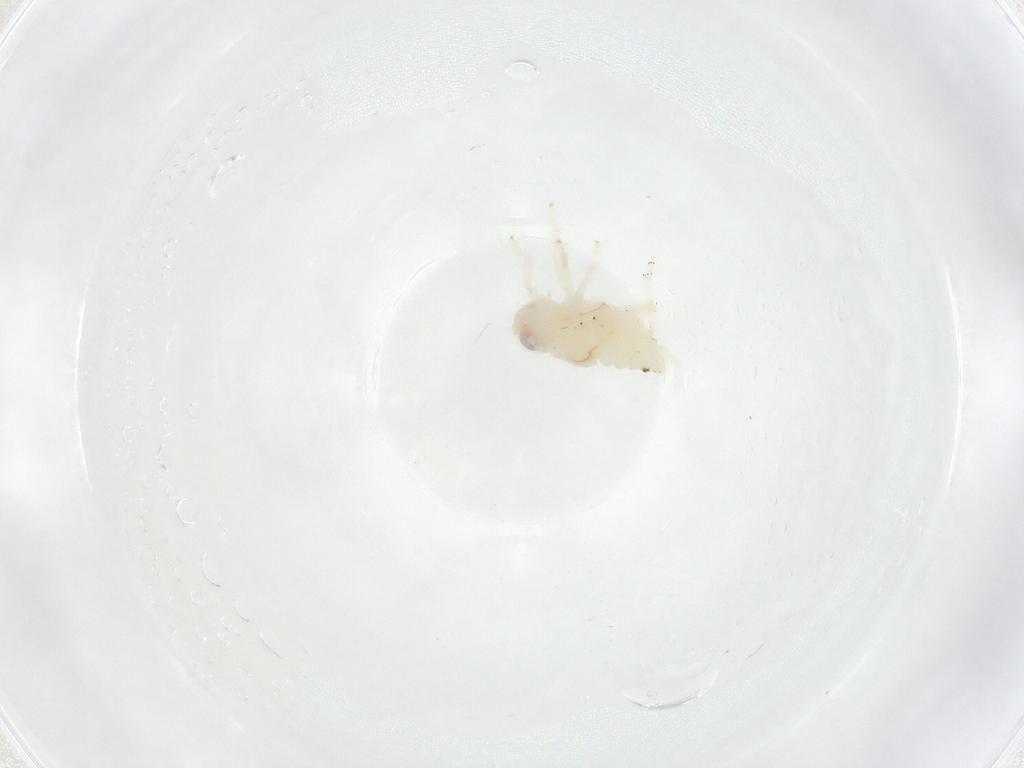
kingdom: Animalia
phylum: Arthropoda
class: Insecta
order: Hemiptera
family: Nogodinidae
